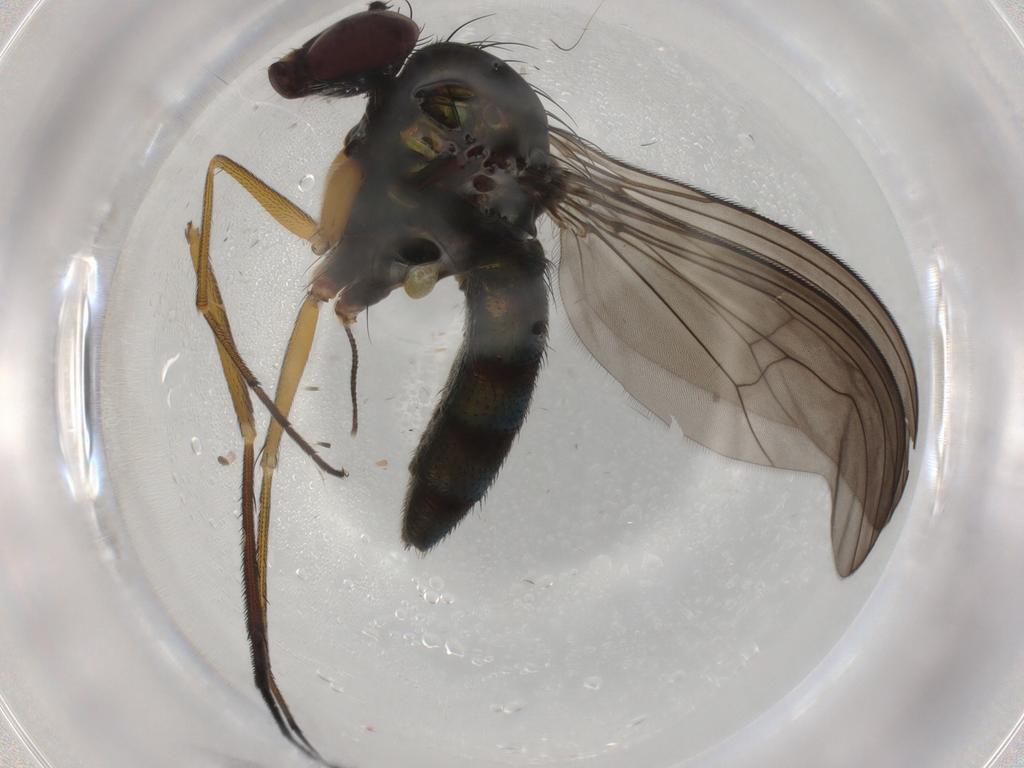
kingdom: Animalia
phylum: Arthropoda
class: Insecta
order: Diptera
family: Dolichopodidae
